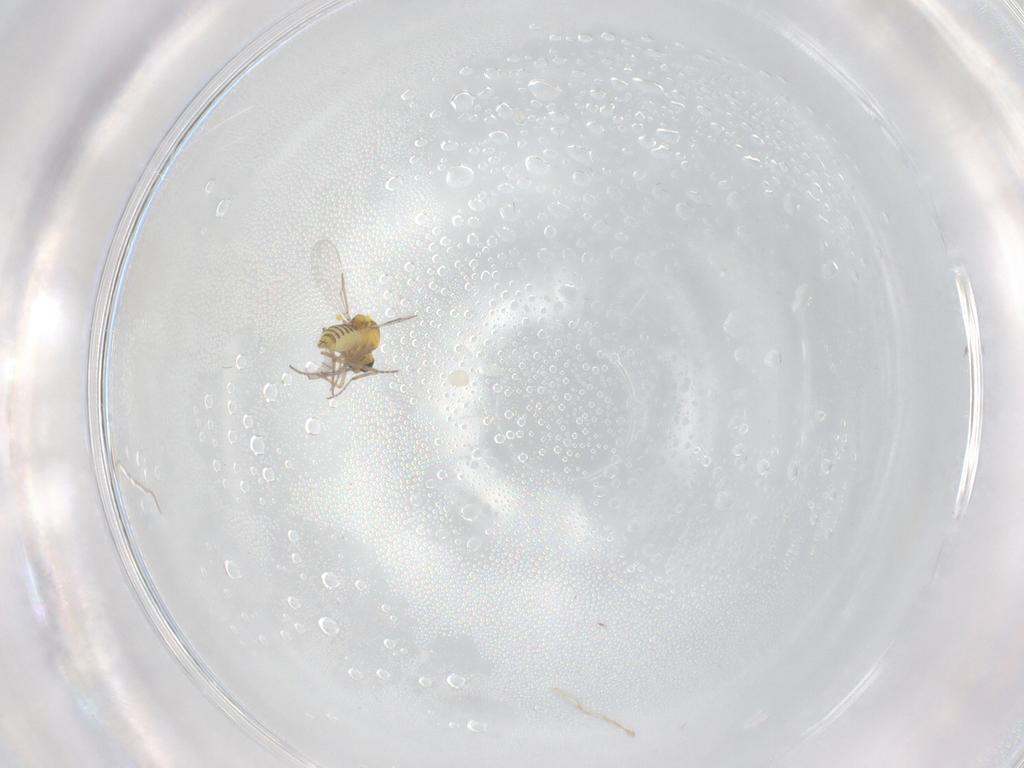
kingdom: Animalia
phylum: Arthropoda
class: Insecta
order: Diptera
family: Ceratopogonidae
